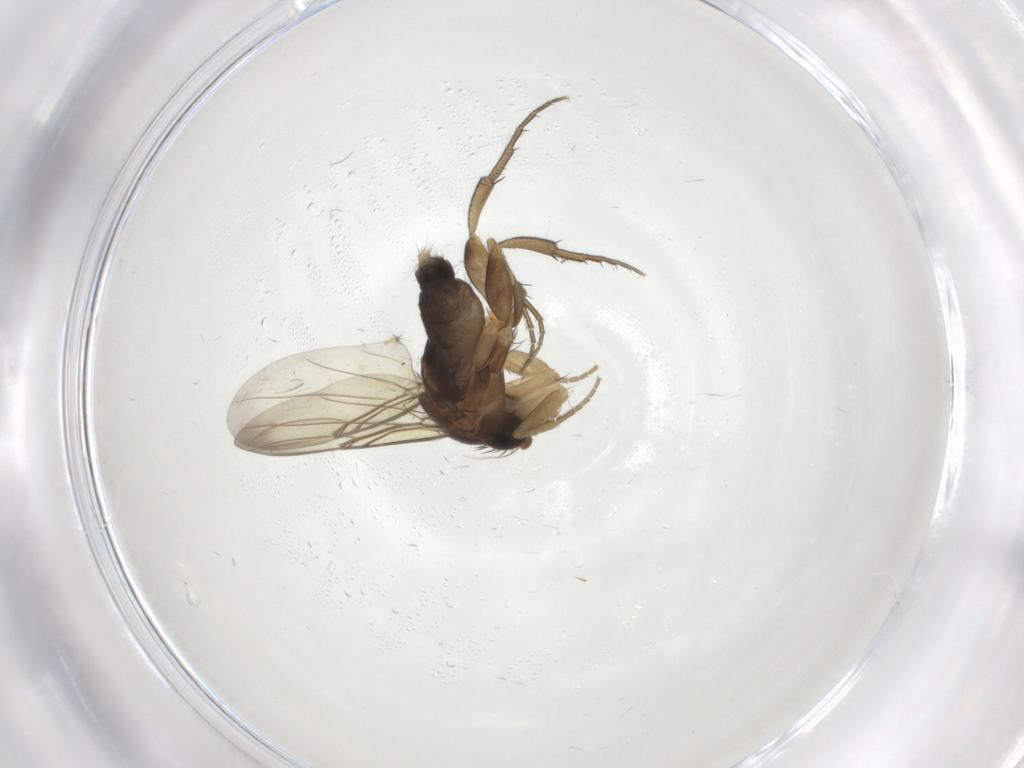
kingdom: Animalia
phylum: Arthropoda
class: Insecta
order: Diptera
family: Phoridae
